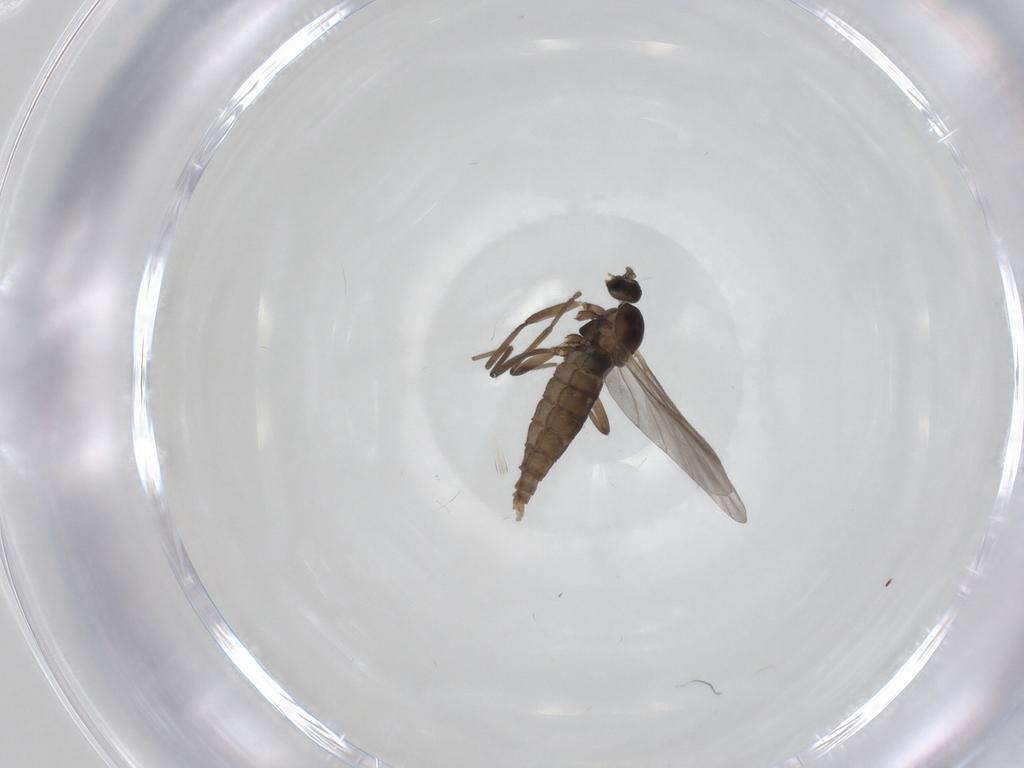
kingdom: Animalia
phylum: Arthropoda
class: Insecta
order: Diptera
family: Cecidomyiidae
